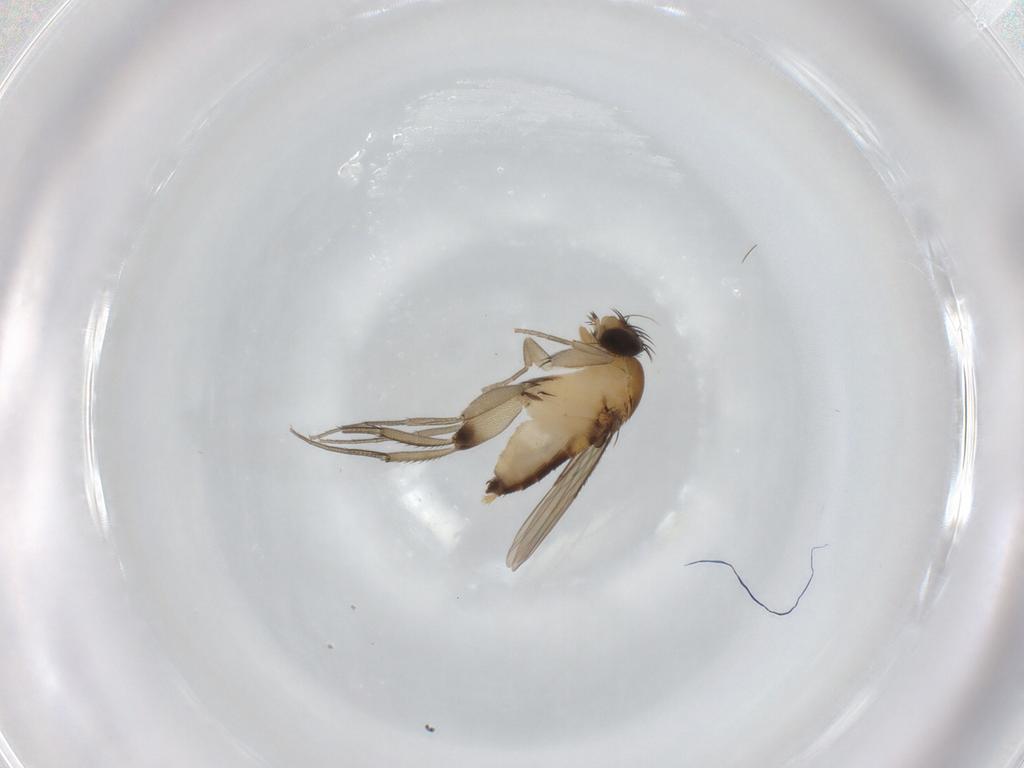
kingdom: Animalia
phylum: Arthropoda
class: Insecta
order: Diptera
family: Phoridae
